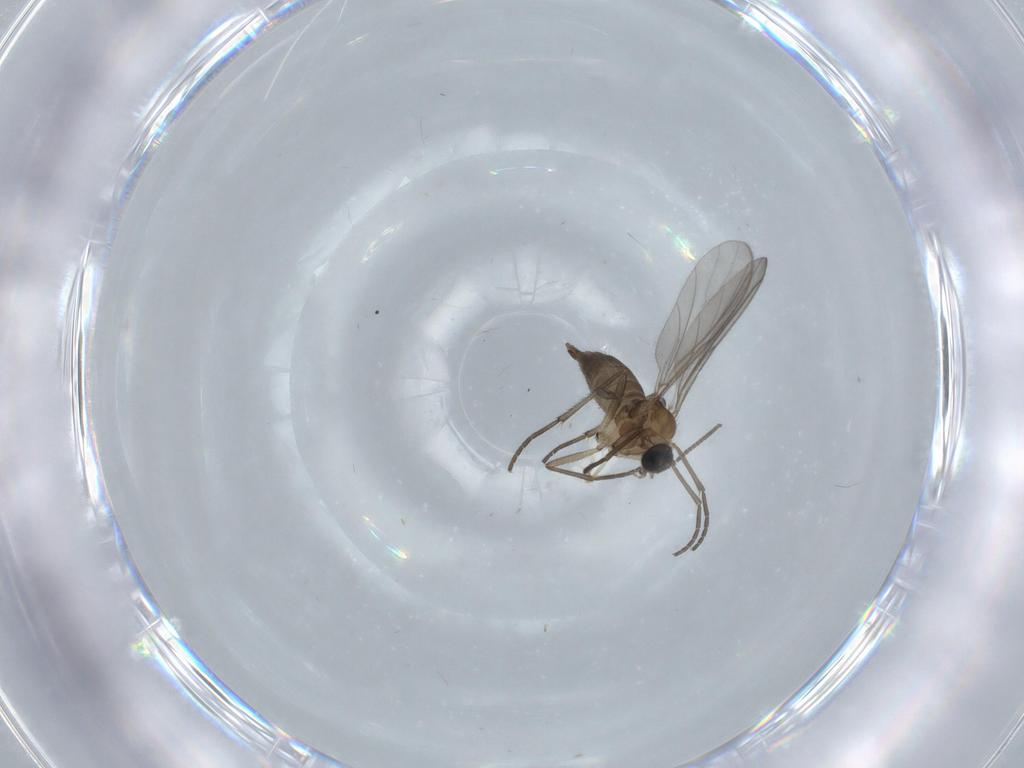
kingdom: Animalia
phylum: Arthropoda
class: Insecta
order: Diptera
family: Sciaridae
